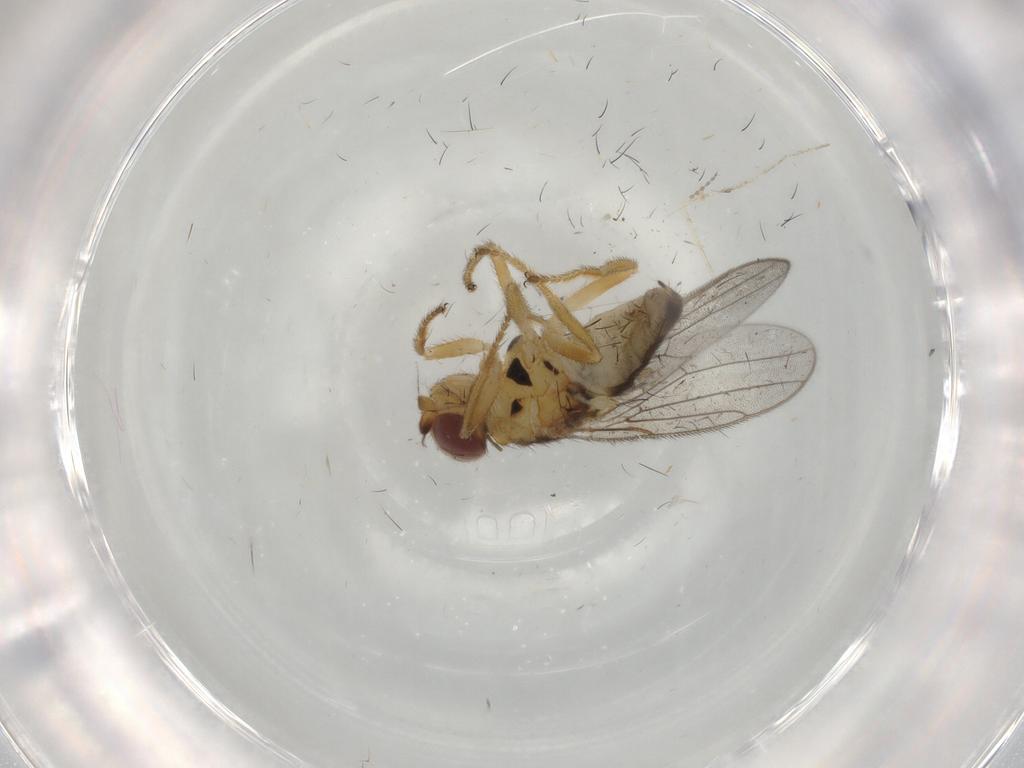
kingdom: Animalia
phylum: Arthropoda
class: Insecta
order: Diptera
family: Chloropidae
